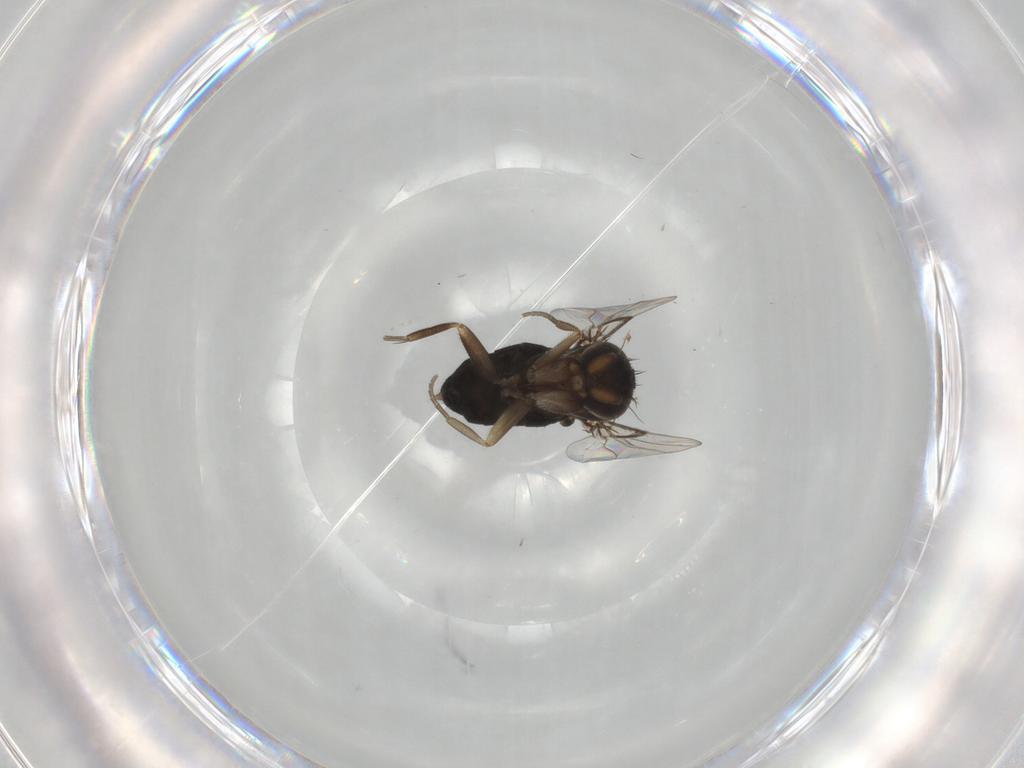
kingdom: Animalia
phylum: Arthropoda
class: Insecta
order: Diptera
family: Phoridae
